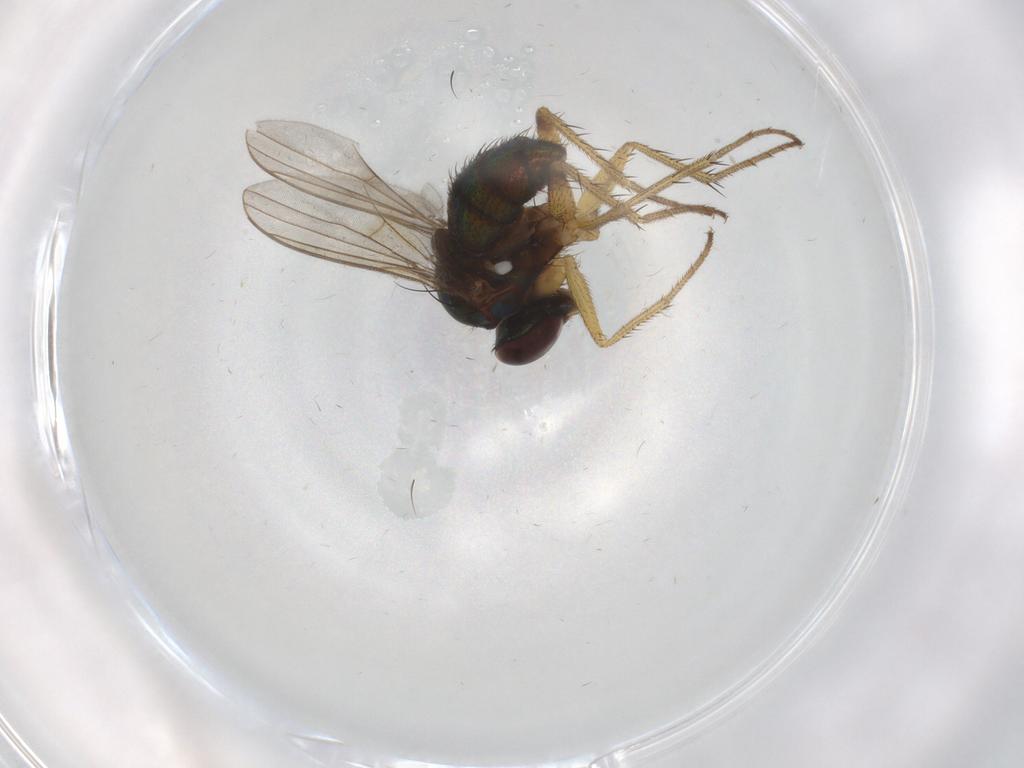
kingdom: Animalia
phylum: Arthropoda
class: Insecta
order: Diptera
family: Dolichopodidae
